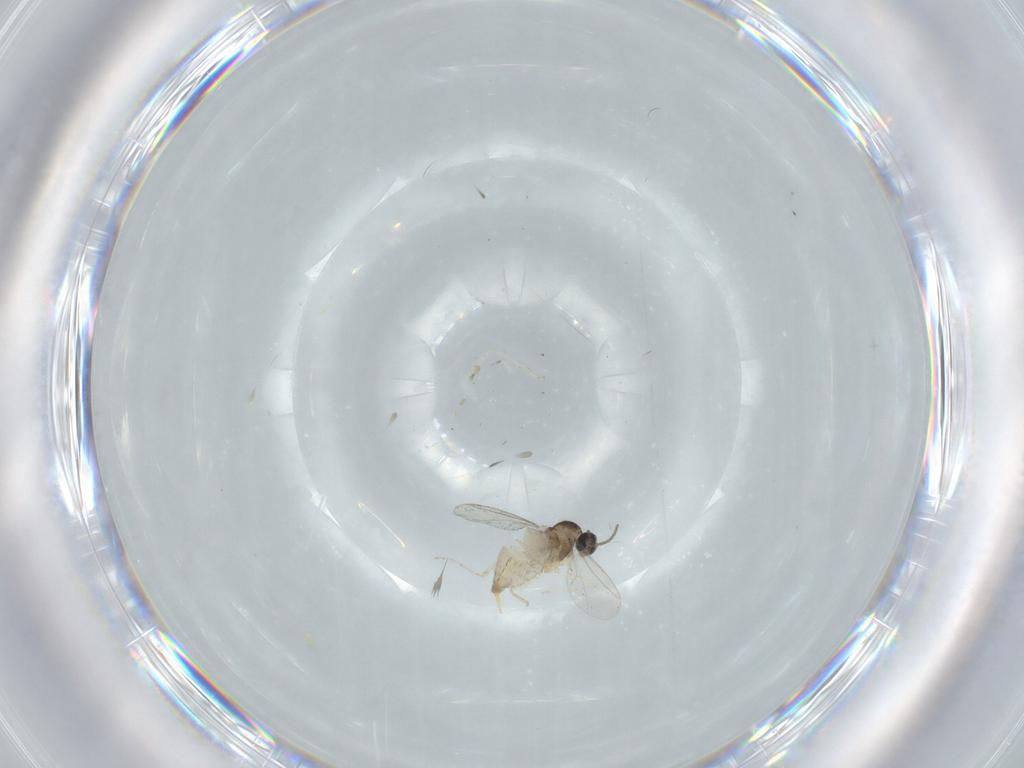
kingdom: Animalia
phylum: Arthropoda
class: Insecta
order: Diptera
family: Cecidomyiidae
